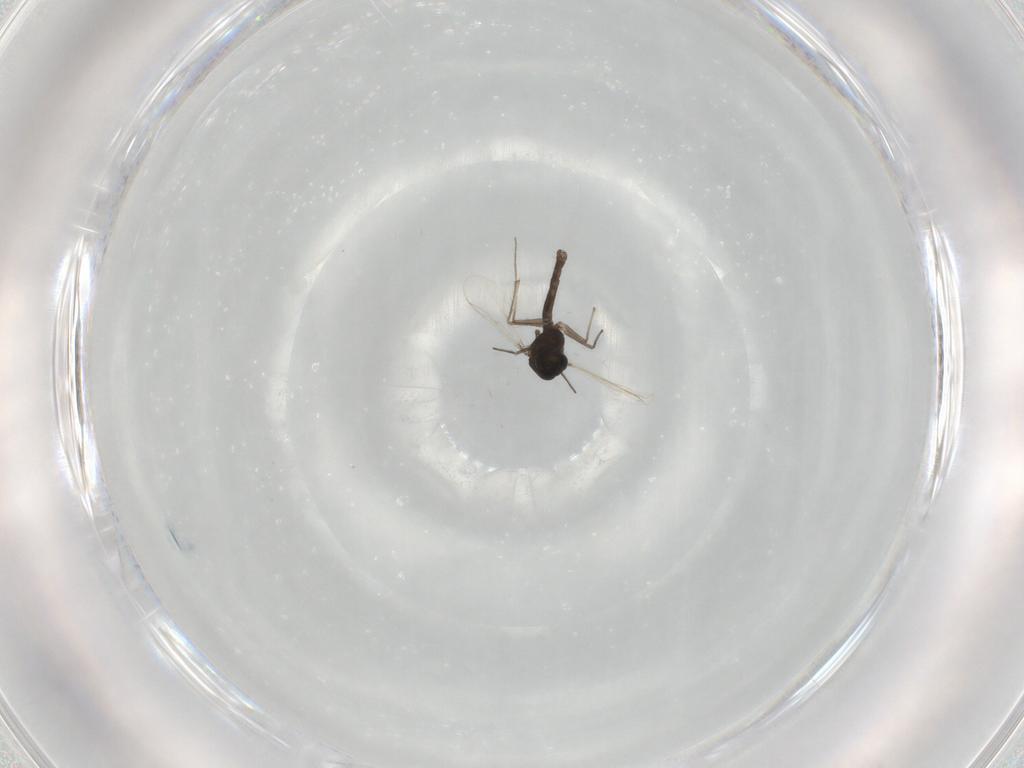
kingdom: Animalia
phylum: Arthropoda
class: Insecta
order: Diptera
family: Chironomidae
